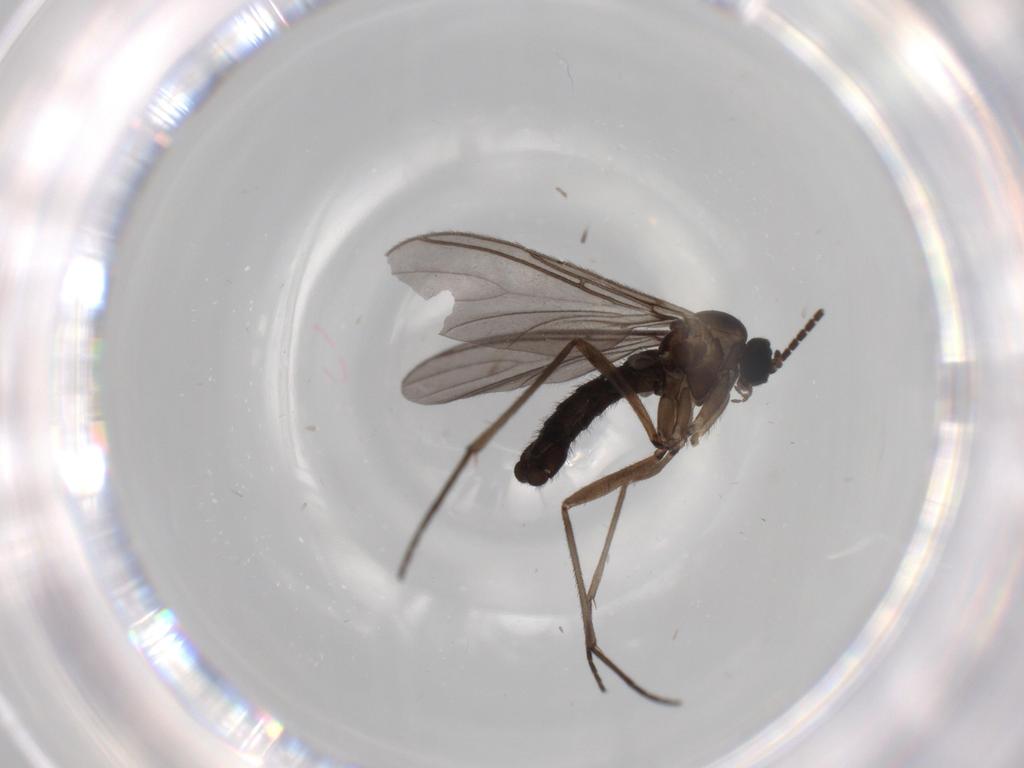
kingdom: Animalia
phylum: Arthropoda
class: Insecta
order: Diptera
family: Sciaridae
